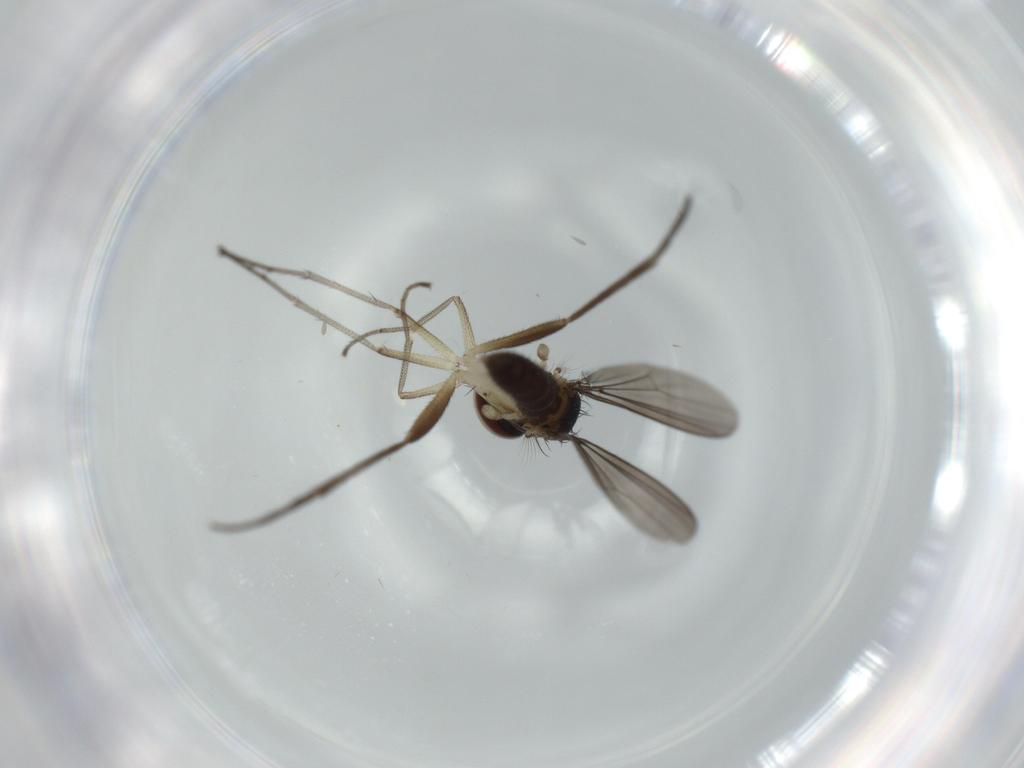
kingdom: Animalia
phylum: Arthropoda
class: Insecta
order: Diptera
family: Dolichopodidae
